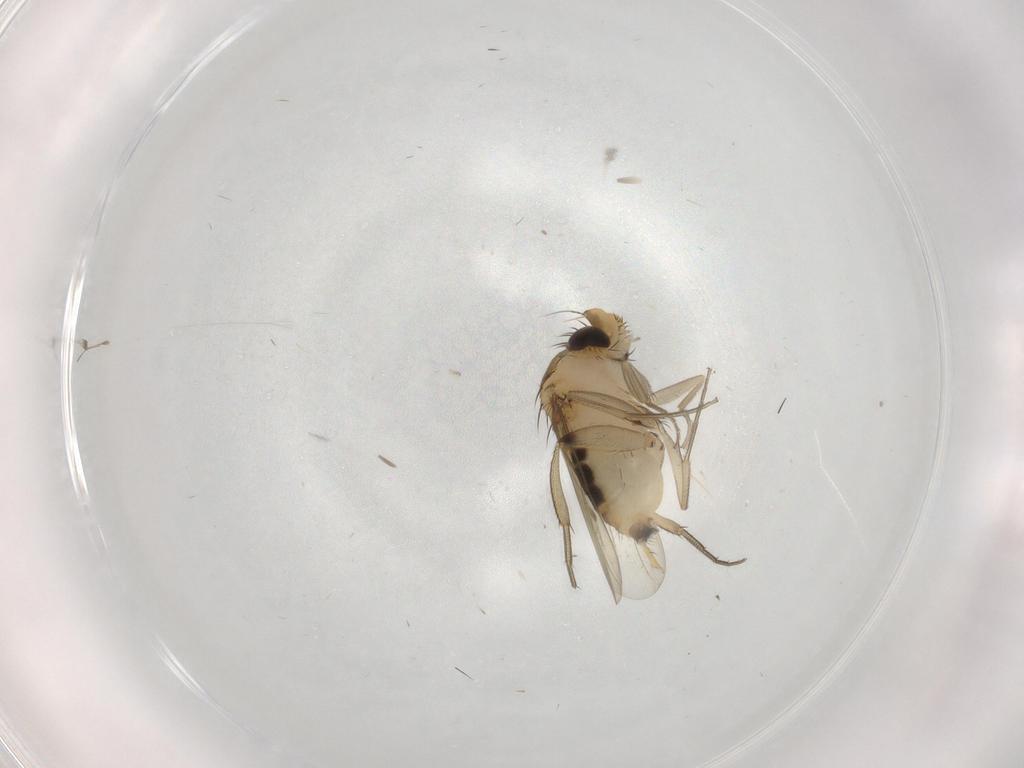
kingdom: Animalia
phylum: Arthropoda
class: Insecta
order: Diptera
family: Phoridae
